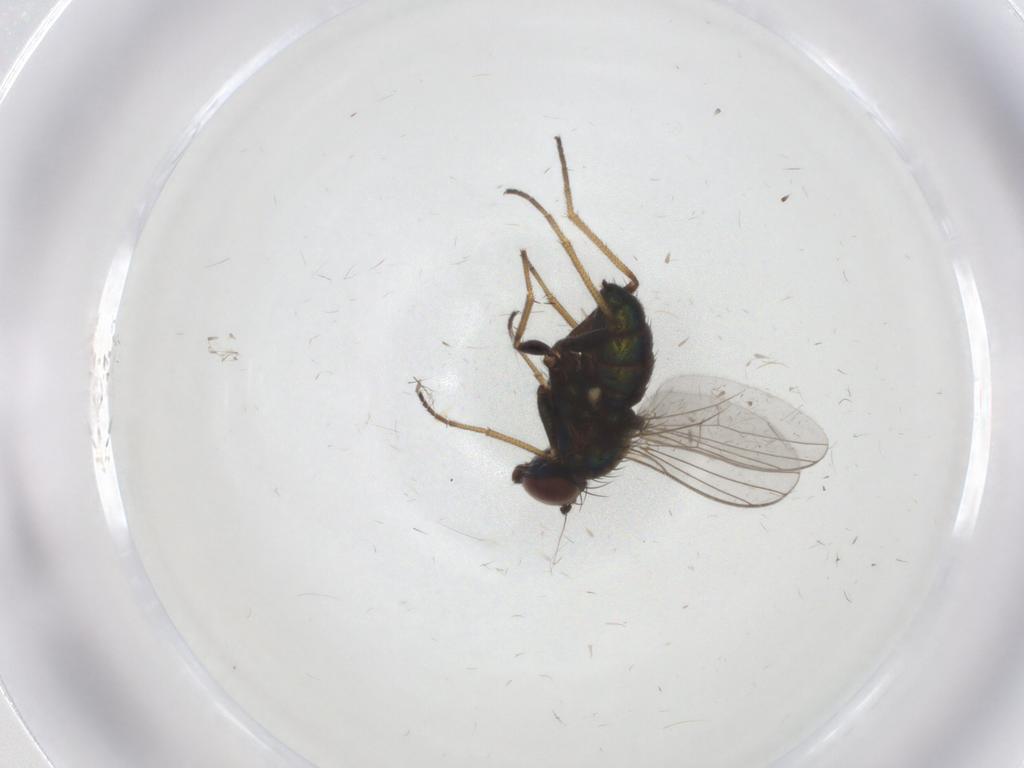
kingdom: Animalia
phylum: Arthropoda
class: Insecta
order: Diptera
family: Dolichopodidae
